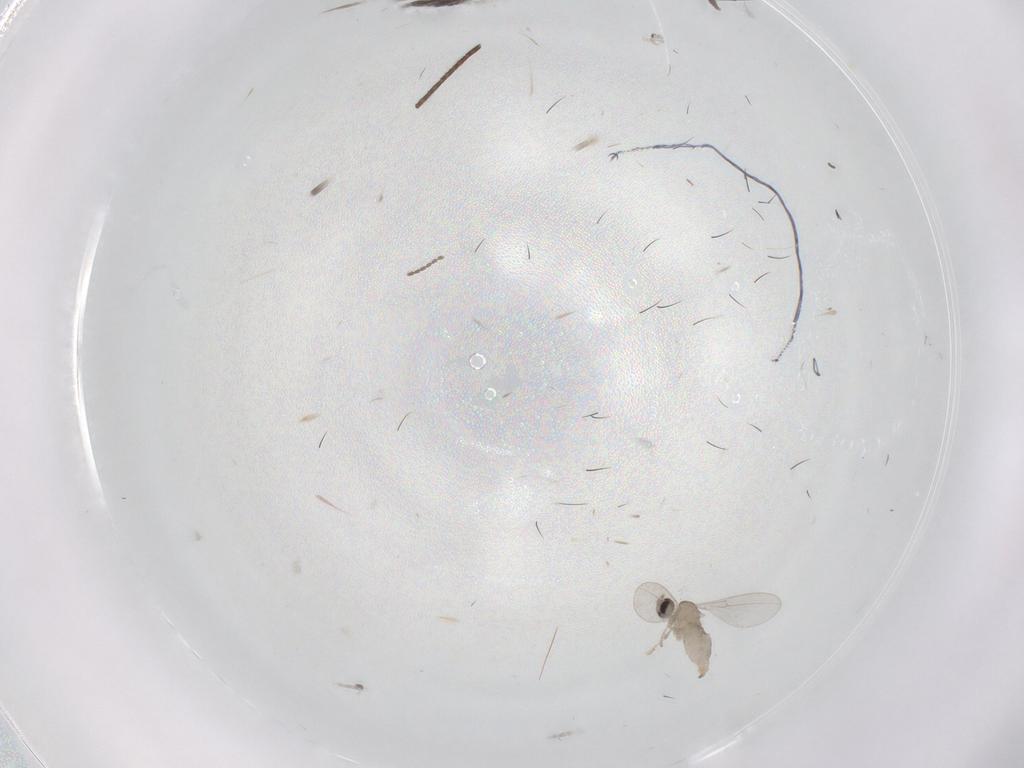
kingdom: Animalia
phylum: Arthropoda
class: Insecta
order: Diptera
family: Cecidomyiidae
